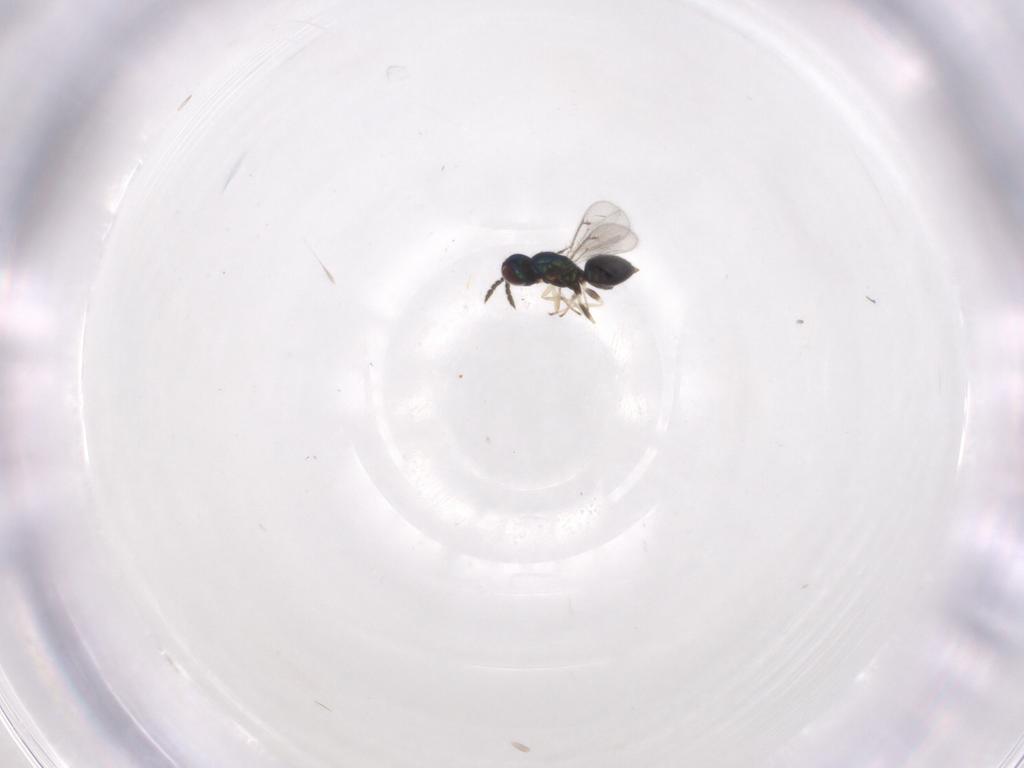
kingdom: Animalia
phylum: Arthropoda
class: Insecta
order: Hymenoptera
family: Eulophidae
